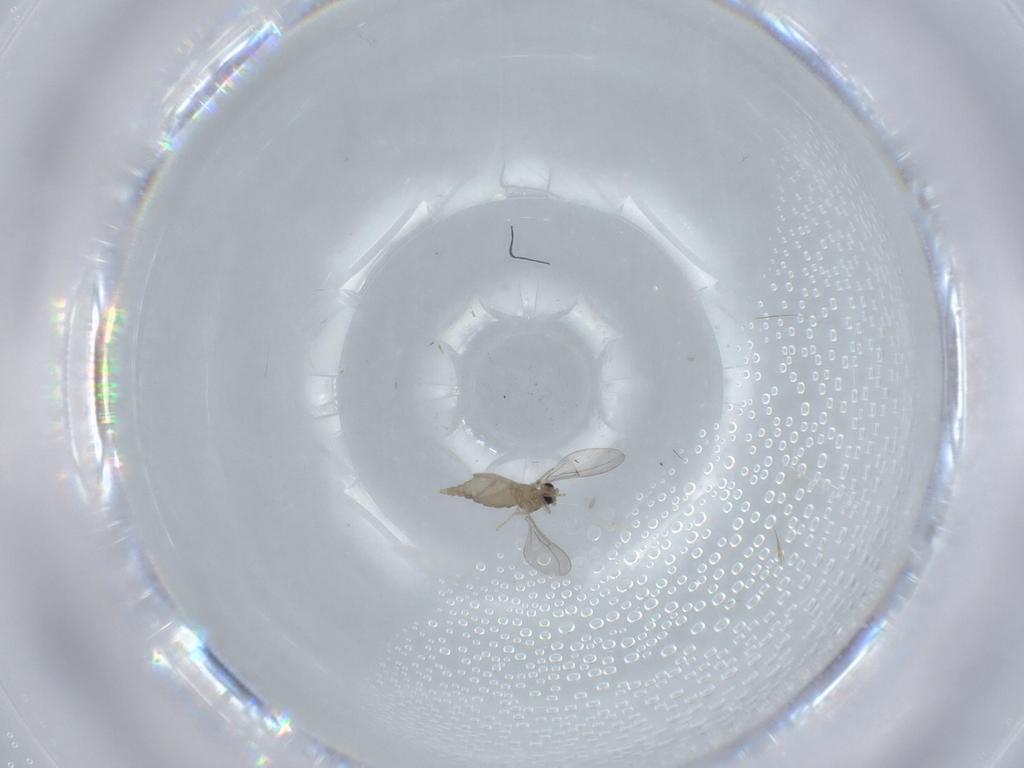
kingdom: Animalia
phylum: Arthropoda
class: Insecta
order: Diptera
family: Cecidomyiidae
